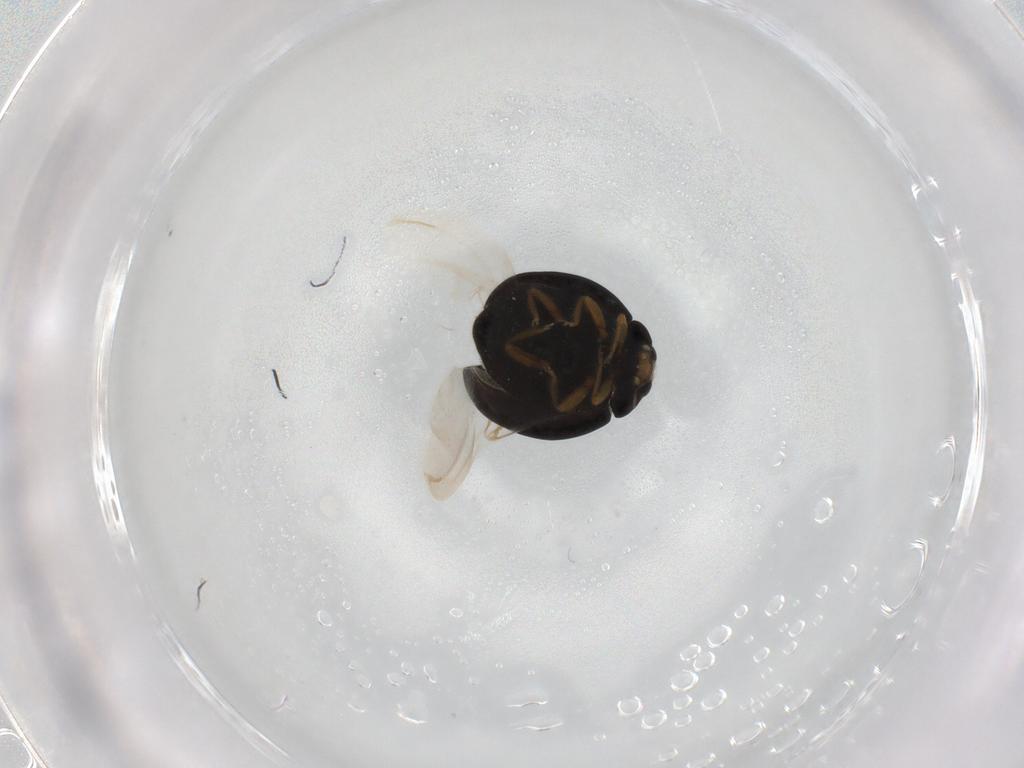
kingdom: Animalia
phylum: Arthropoda
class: Insecta
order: Coleoptera
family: Coccinellidae
